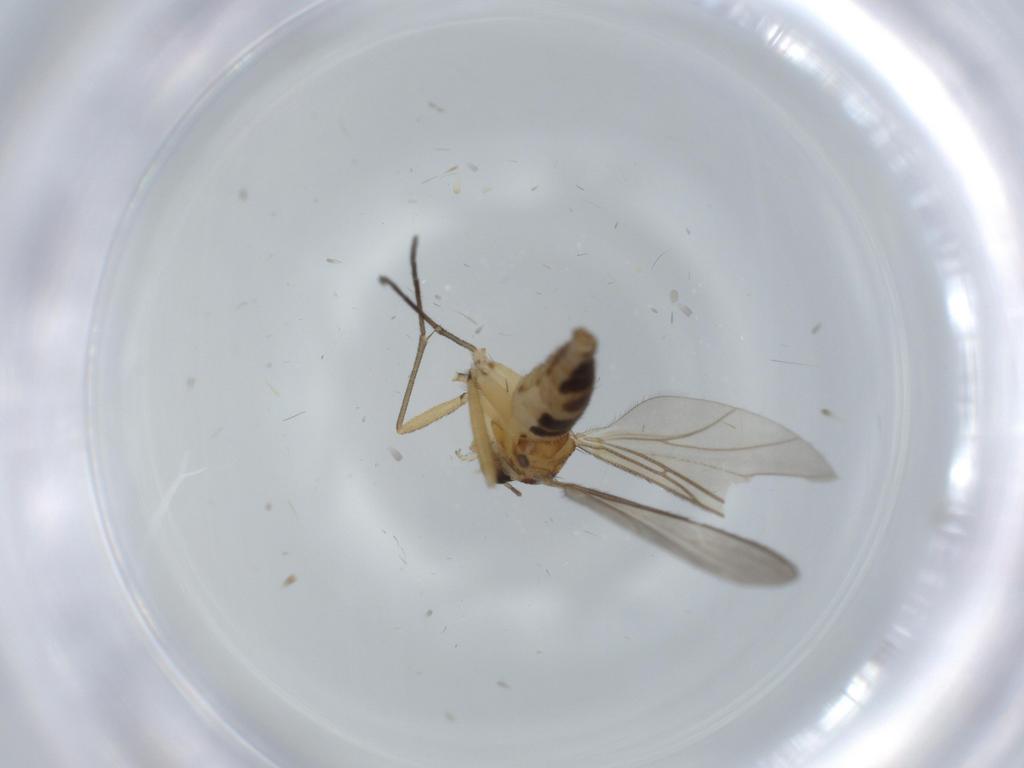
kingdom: Animalia
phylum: Arthropoda
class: Insecta
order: Diptera
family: Sciaridae
